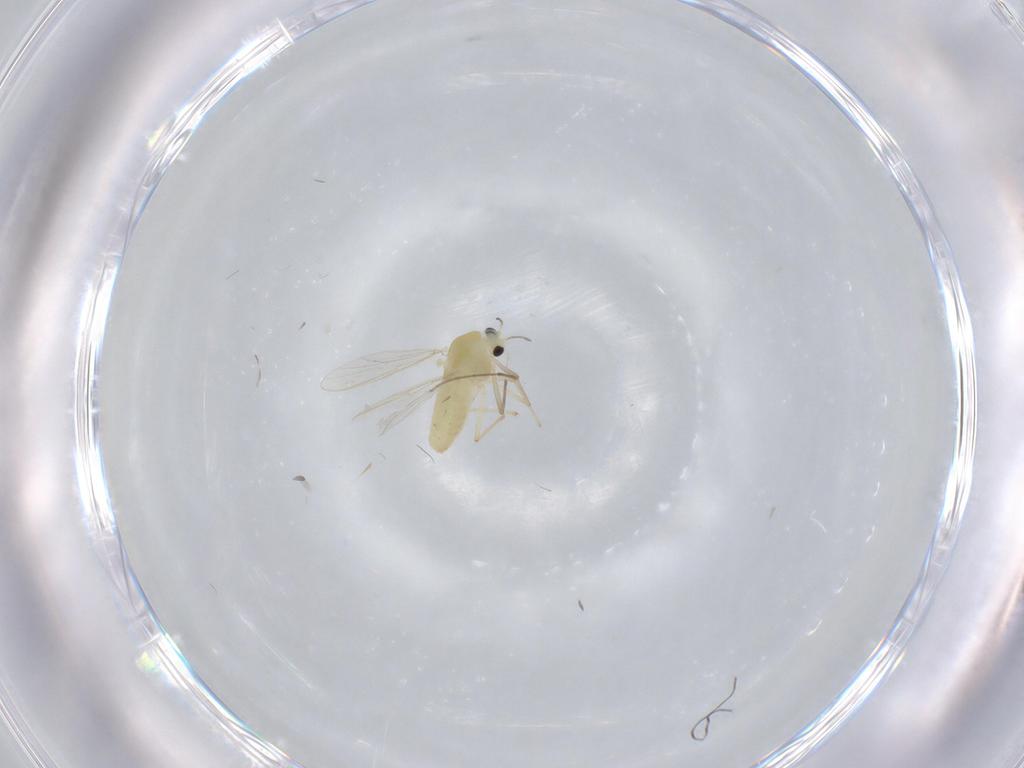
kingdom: Animalia
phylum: Arthropoda
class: Insecta
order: Diptera
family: Chironomidae
